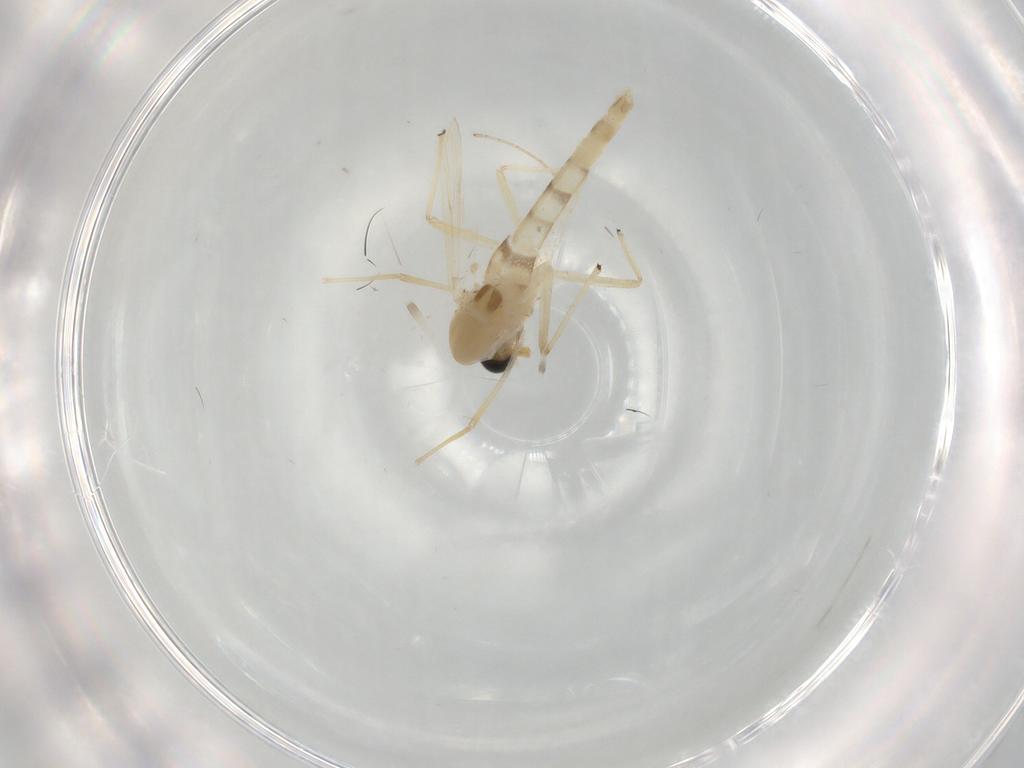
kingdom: Animalia
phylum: Arthropoda
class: Insecta
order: Diptera
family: Chironomidae
